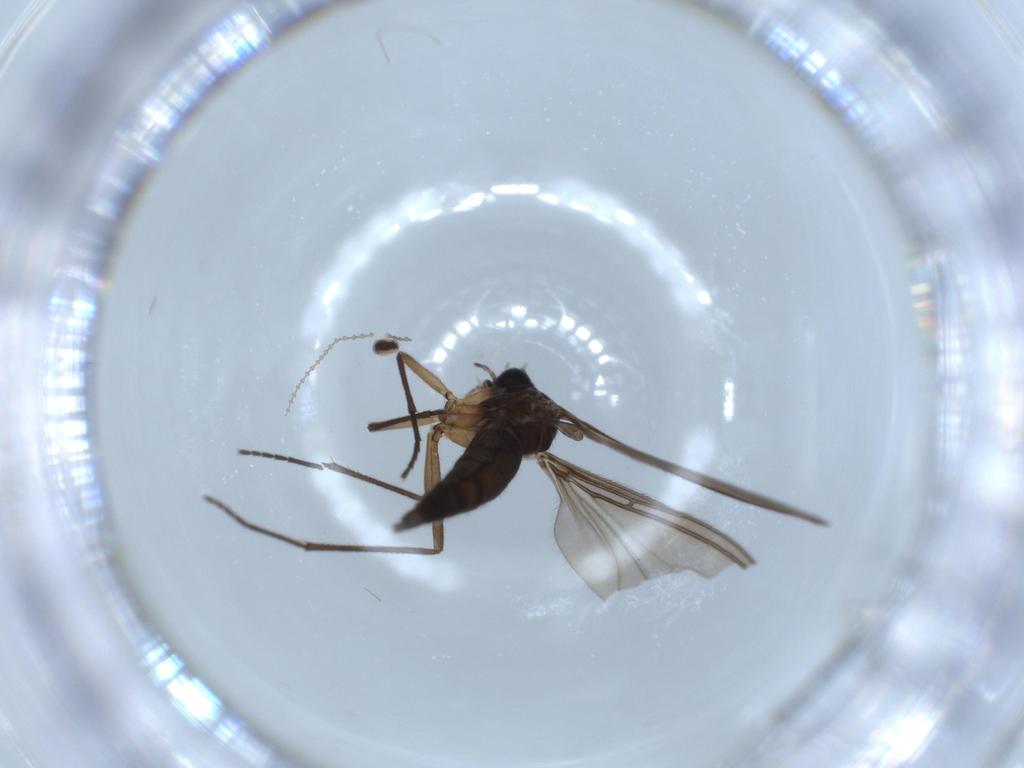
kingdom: Animalia
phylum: Arthropoda
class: Insecta
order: Diptera
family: Sciaridae
